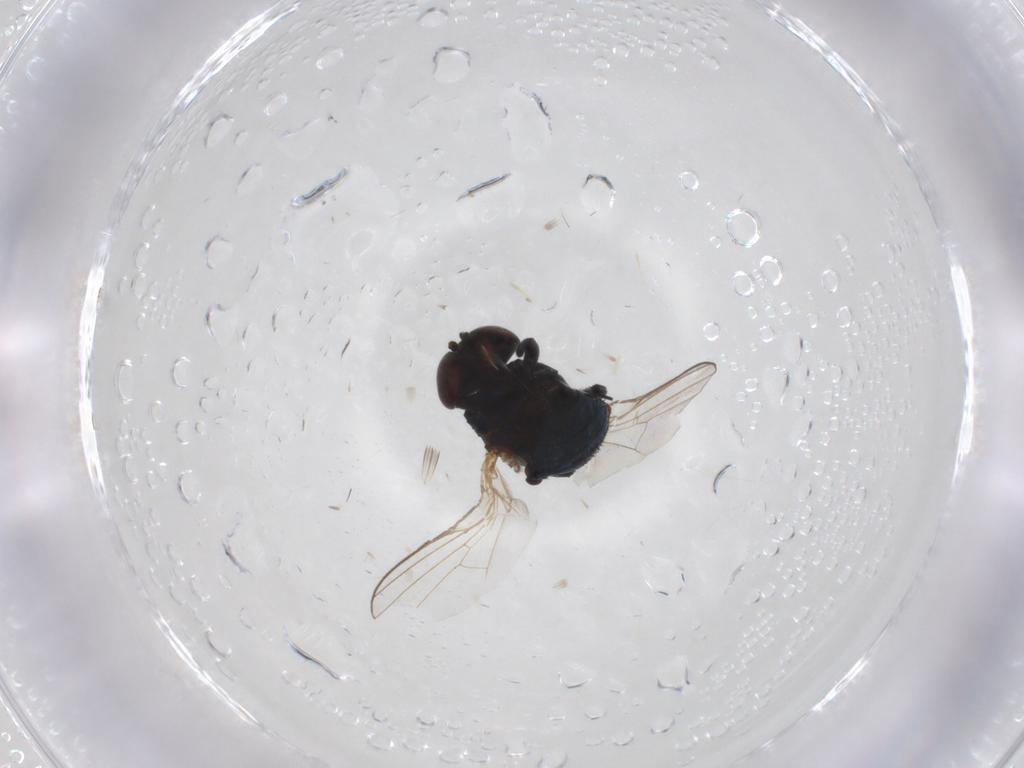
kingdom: Animalia
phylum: Arthropoda
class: Insecta
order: Diptera
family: Agromyzidae
